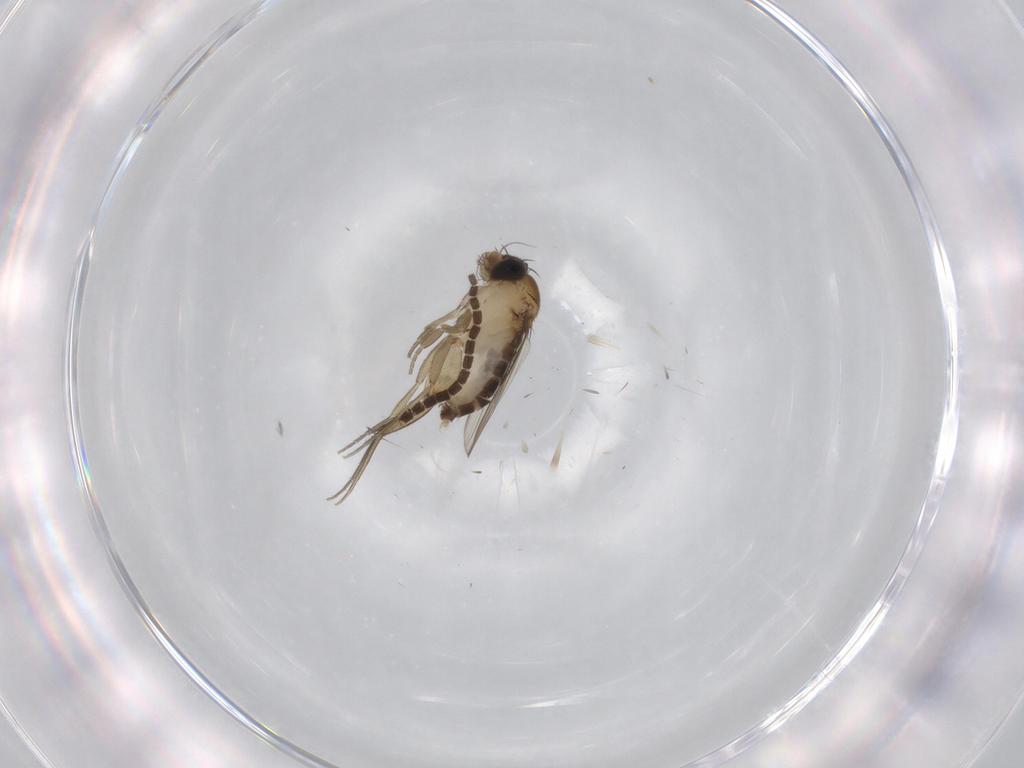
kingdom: Animalia
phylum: Arthropoda
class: Insecta
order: Diptera
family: Phoridae
